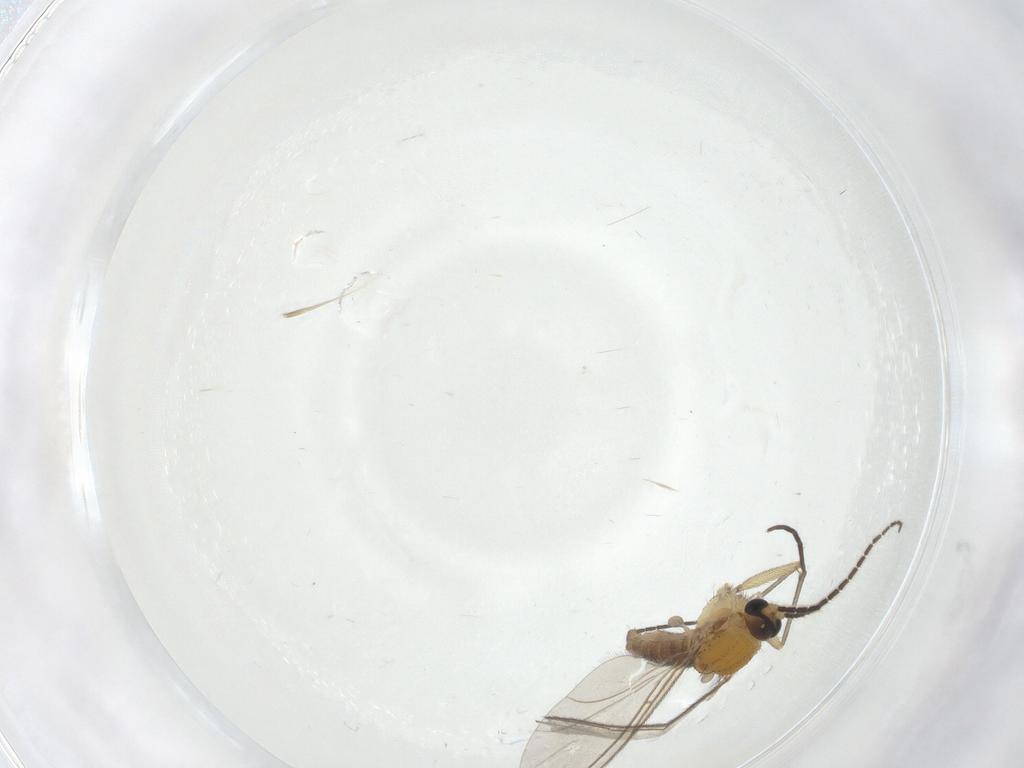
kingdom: Animalia
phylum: Arthropoda
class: Insecta
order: Diptera
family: Sciaridae
